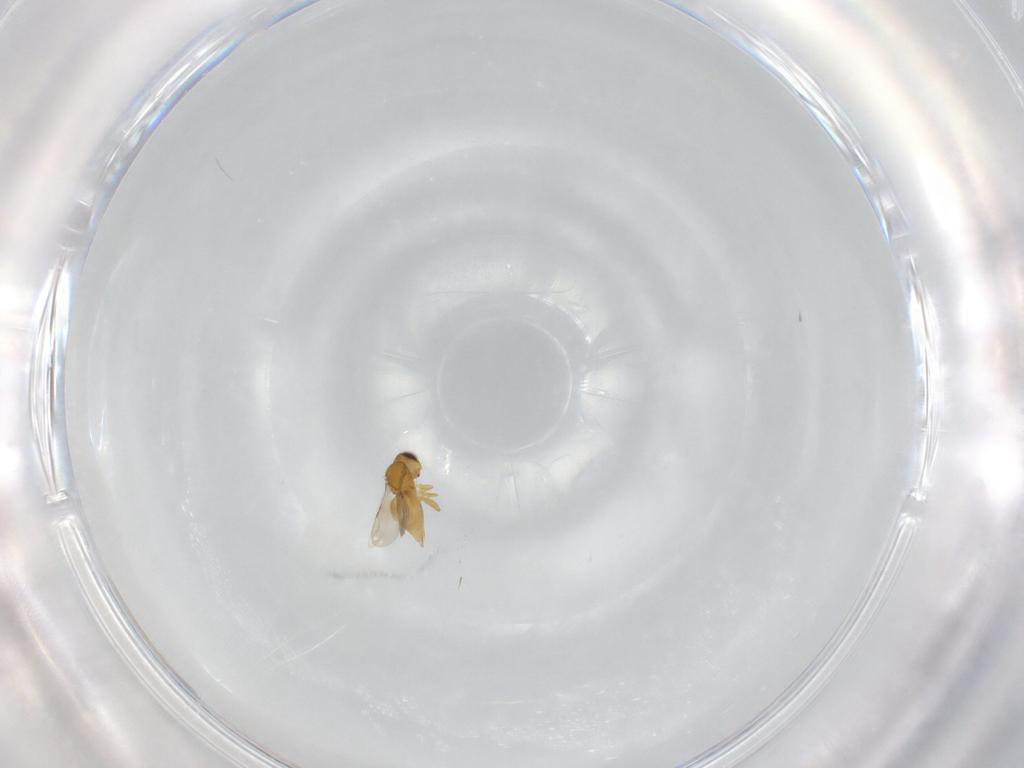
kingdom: Animalia
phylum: Arthropoda
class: Insecta
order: Hymenoptera
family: Ceraphronidae
